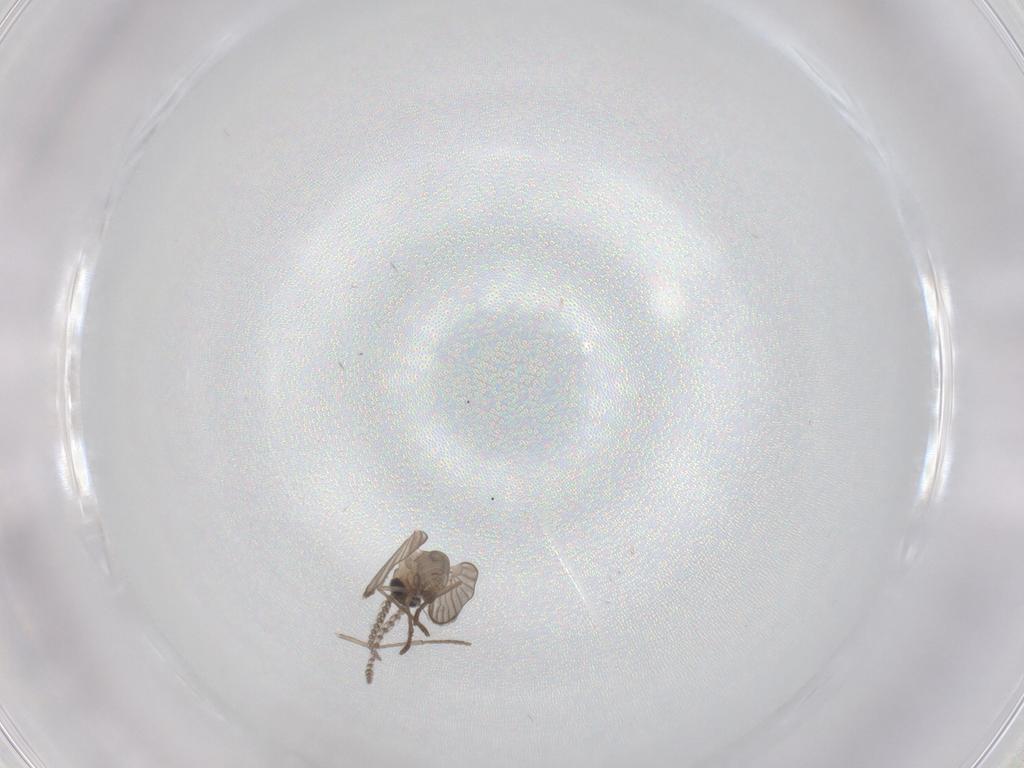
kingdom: Animalia
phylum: Arthropoda
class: Insecta
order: Diptera
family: Psychodidae
